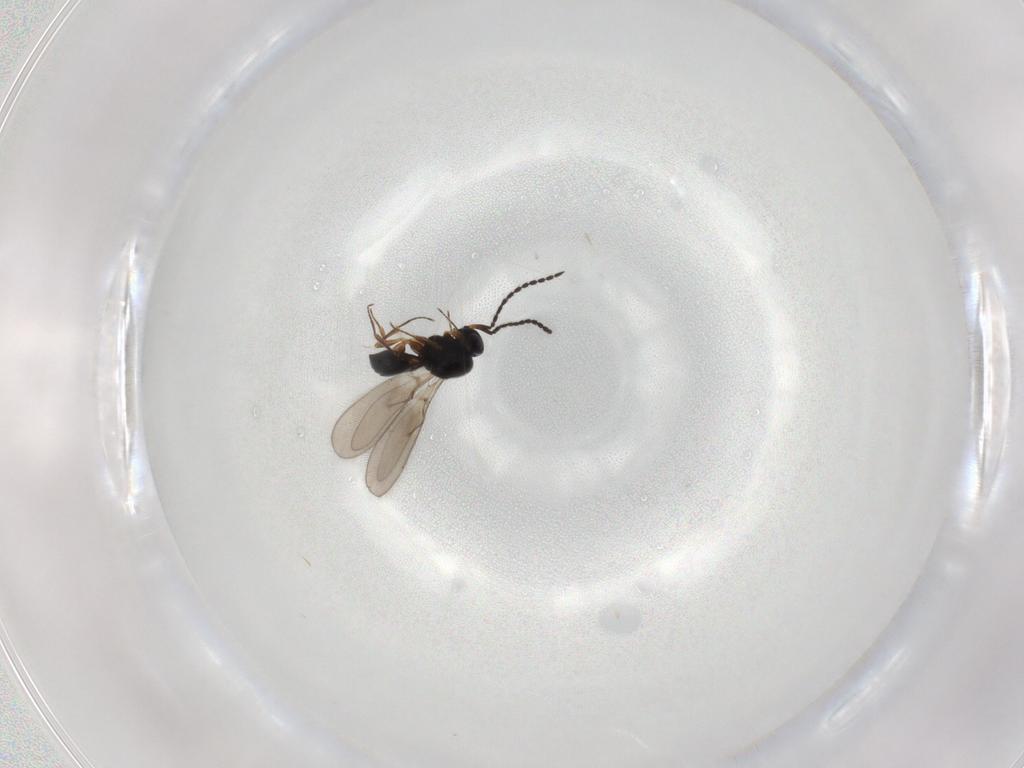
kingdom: Animalia
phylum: Arthropoda
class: Insecta
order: Hymenoptera
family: Scelionidae
